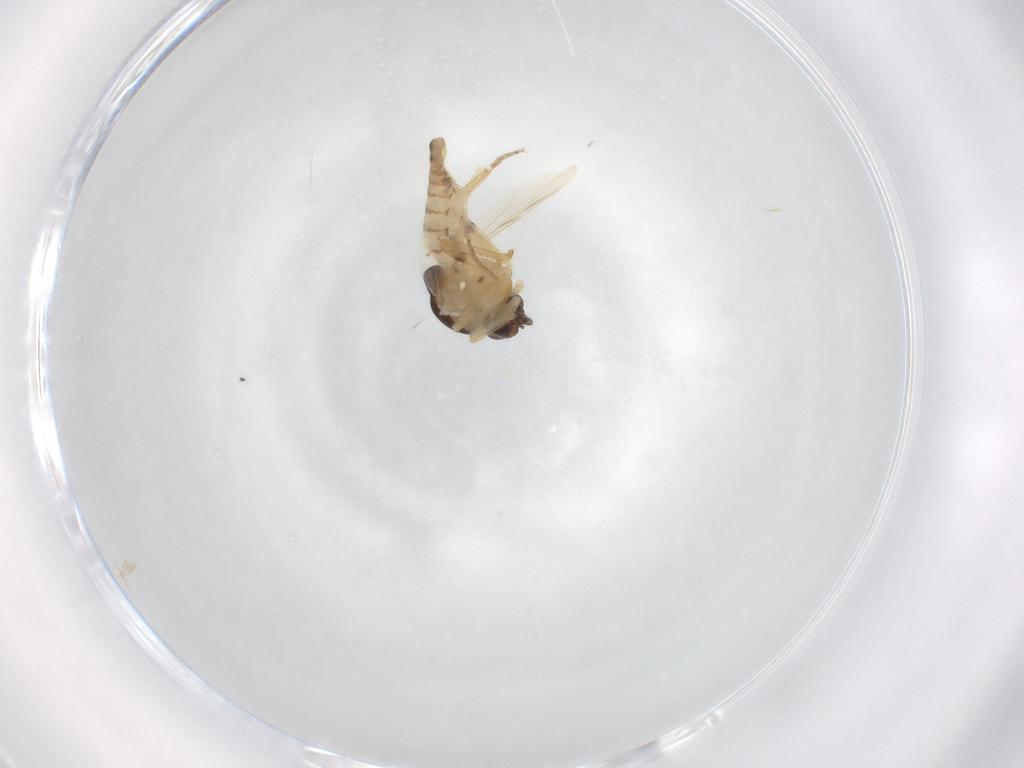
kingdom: Animalia
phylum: Arthropoda
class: Insecta
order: Diptera
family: Ceratopogonidae
